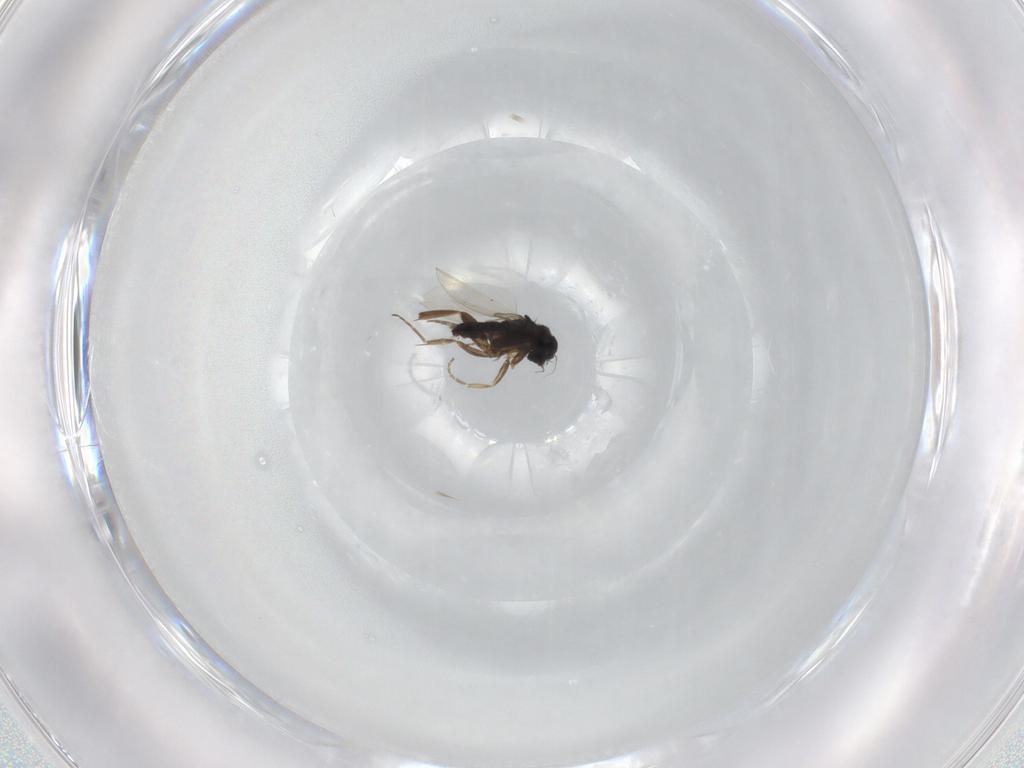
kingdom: Animalia
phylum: Arthropoda
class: Insecta
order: Diptera
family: Phoridae
